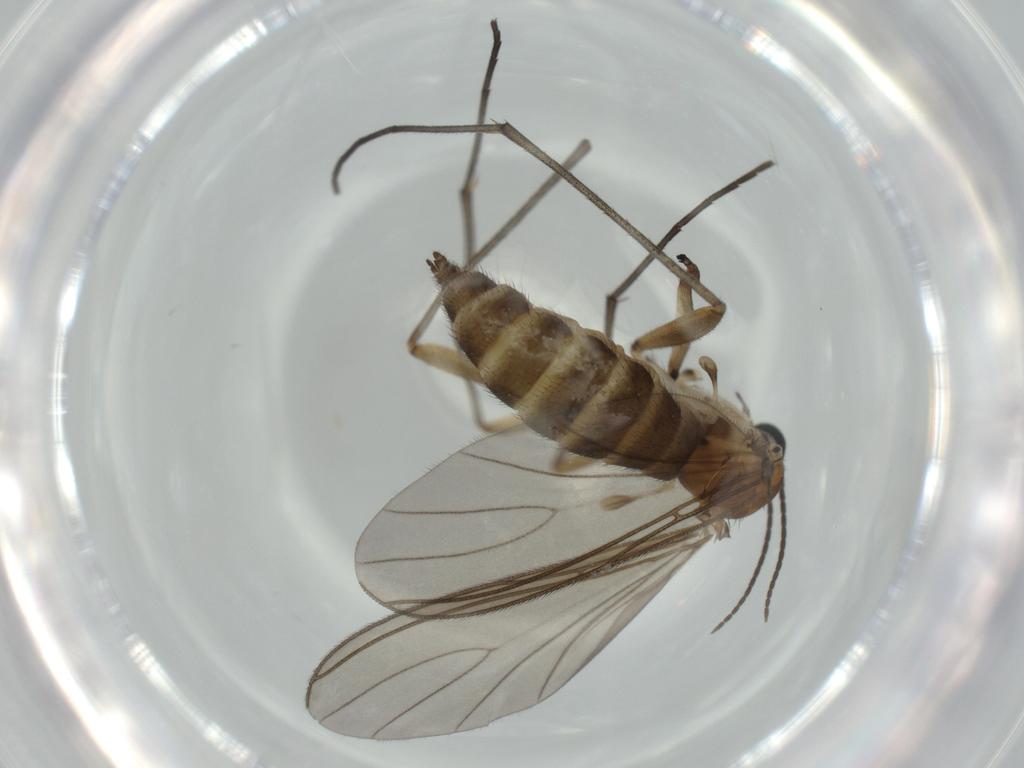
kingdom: Animalia
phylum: Arthropoda
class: Insecta
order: Diptera
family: Sciaridae
